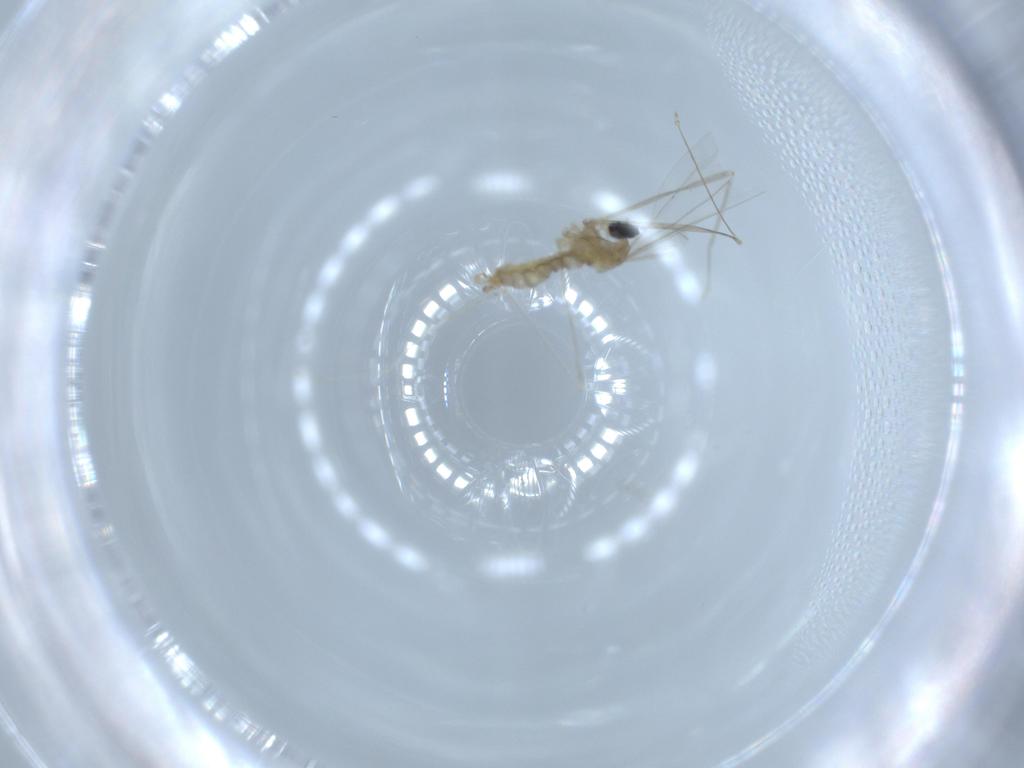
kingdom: Animalia
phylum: Arthropoda
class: Insecta
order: Diptera
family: Cecidomyiidae
